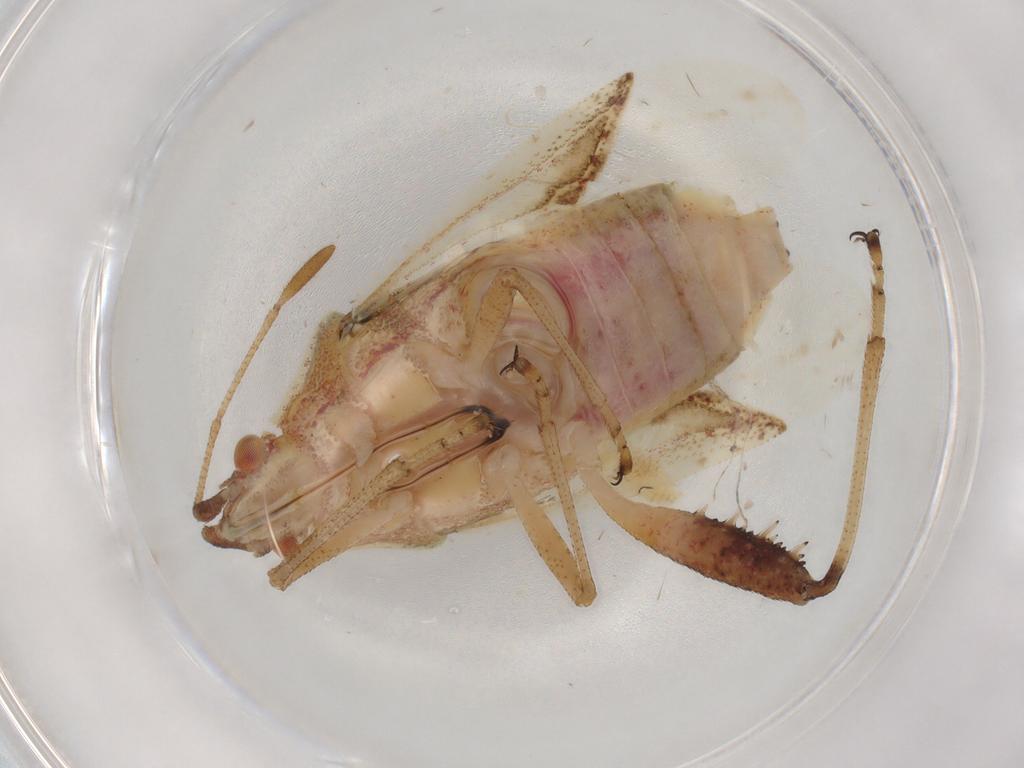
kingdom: Animalia
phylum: Arthropoda
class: Insecta
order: Hemiptera
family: Rhopalidae
